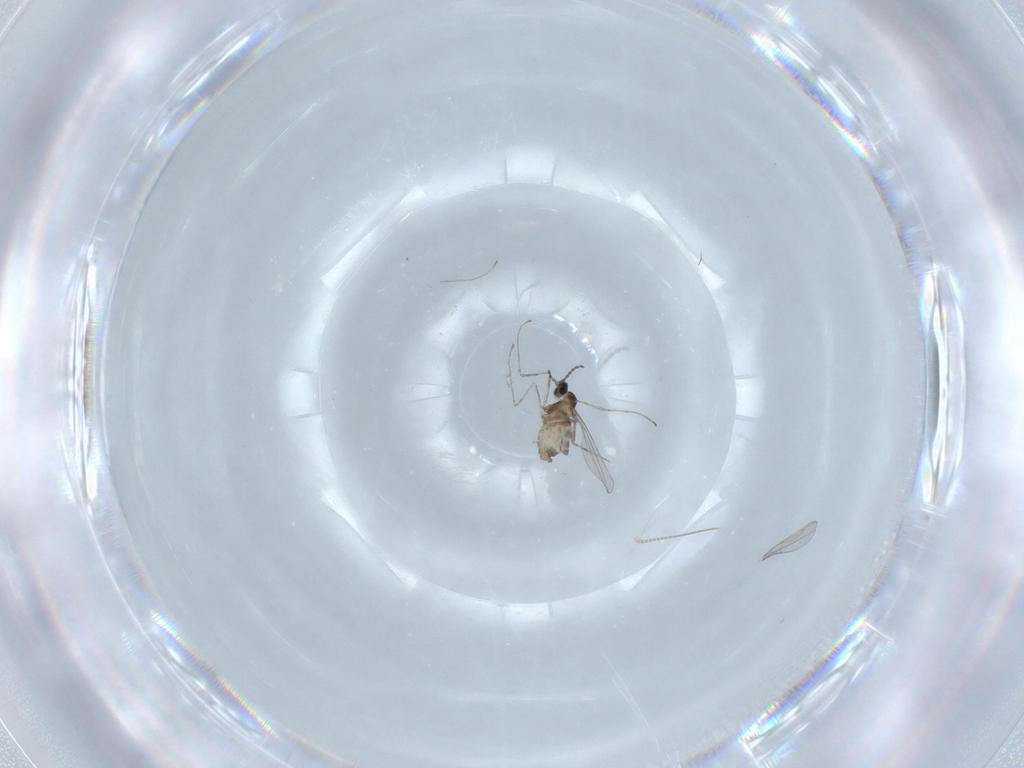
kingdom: Animalia
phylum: Arthropoda
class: Insecta
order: Diptera
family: Cecidomyiidae
